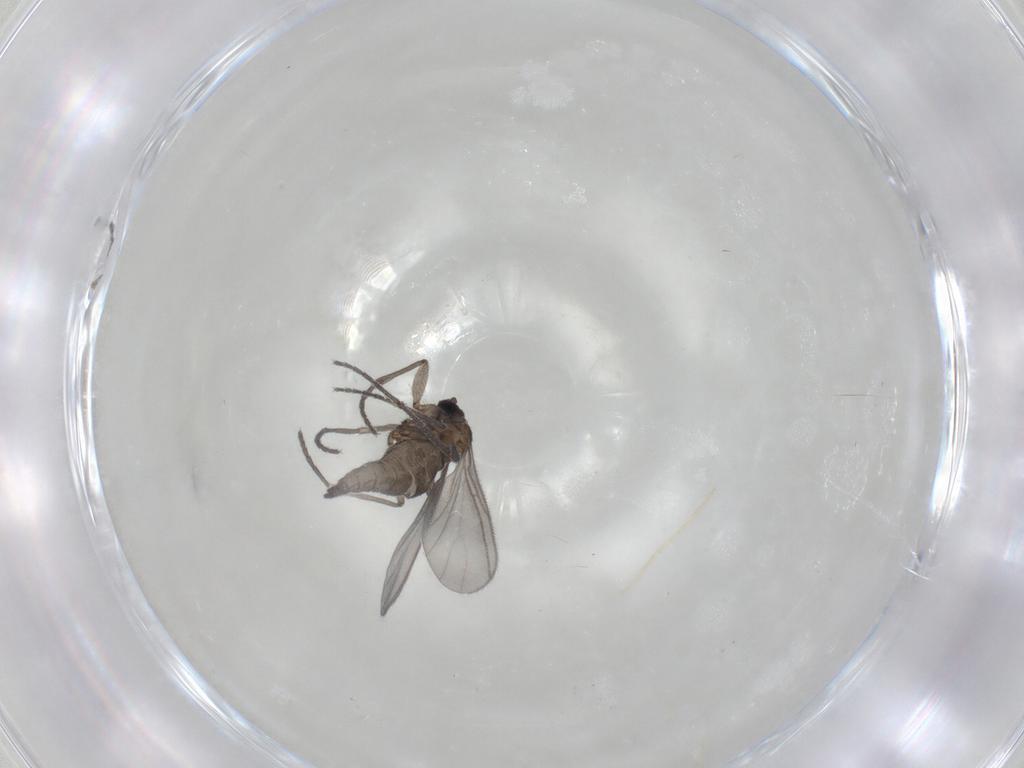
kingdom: Animalia
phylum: Arthropoda
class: Insecta
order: Diptera
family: Sciaridae
